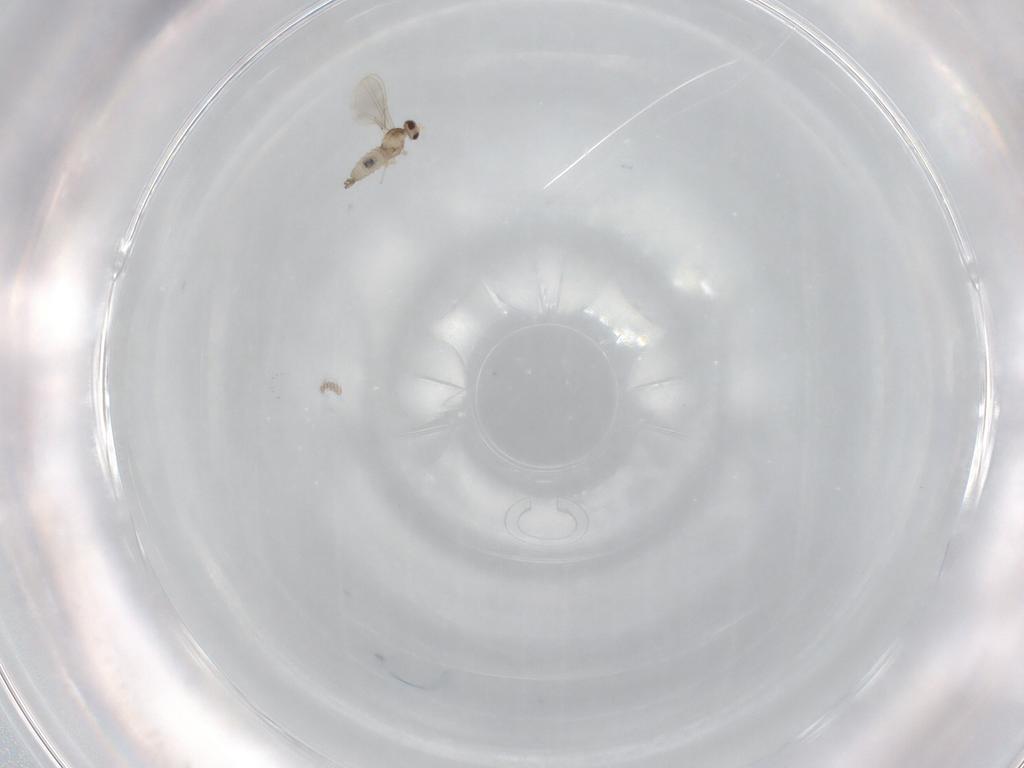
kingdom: Animalia
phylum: Arthropoda
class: Insecta
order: Diptera
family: Cecidomyiidae
